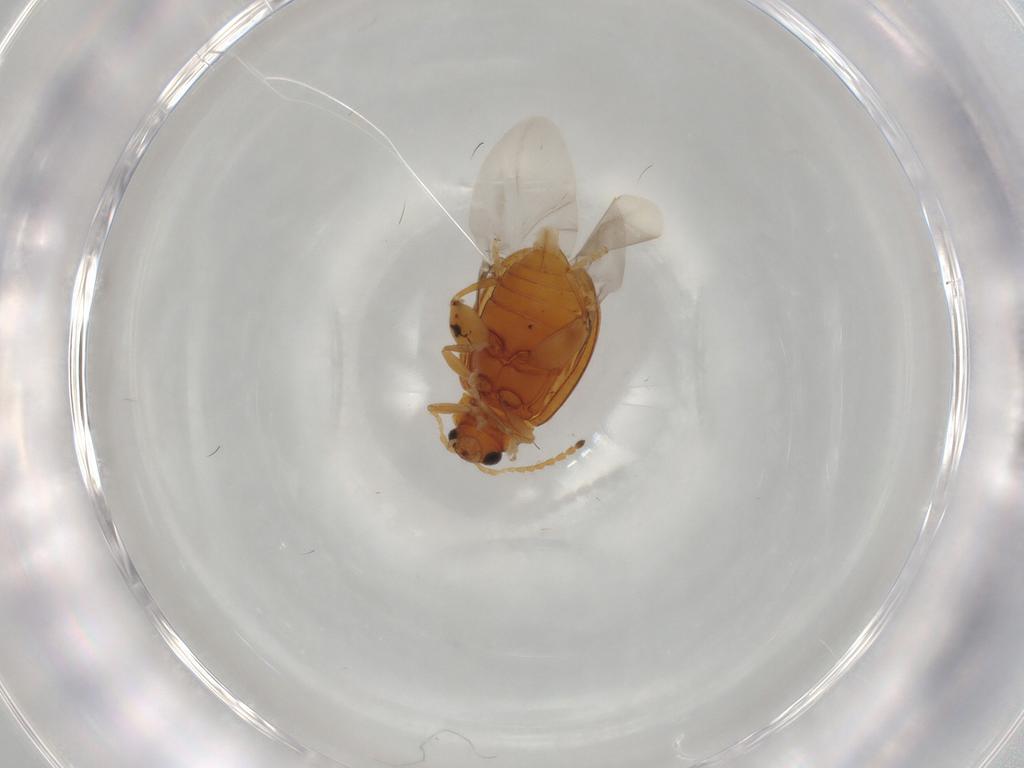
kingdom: Animalia
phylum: Arthropoda
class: Insecta
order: Coleoptera
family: Chrysomelidae
